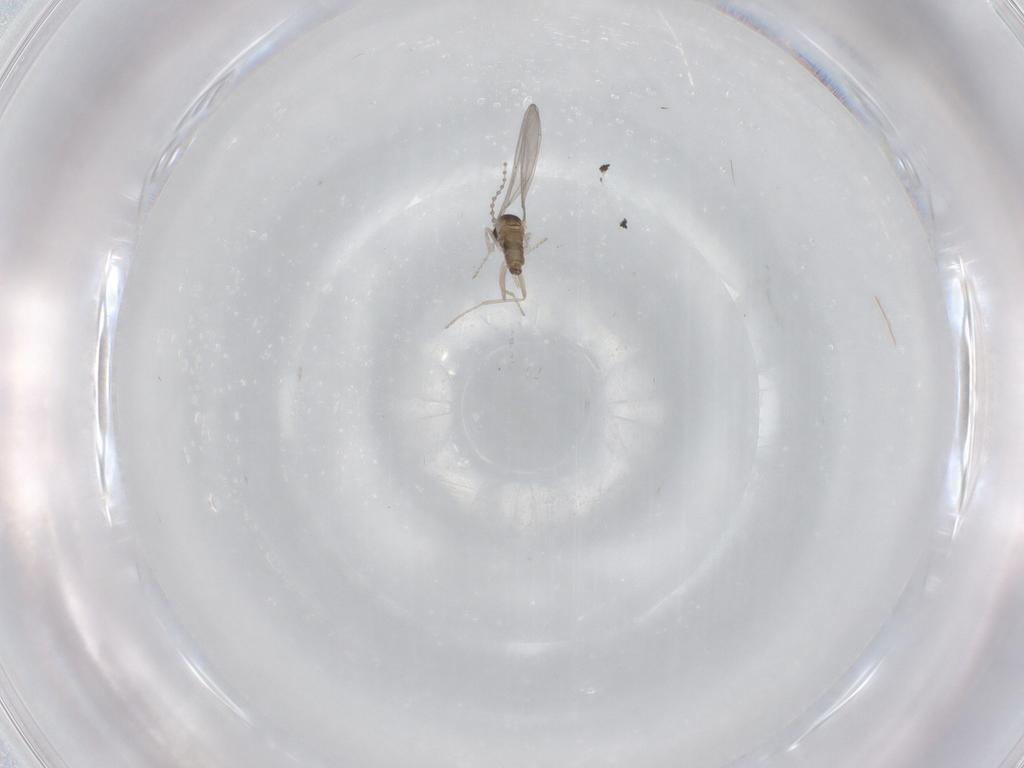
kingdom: Animalia
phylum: Arthropoda
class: Insecta
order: Diptera
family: Cecidomyiidae
